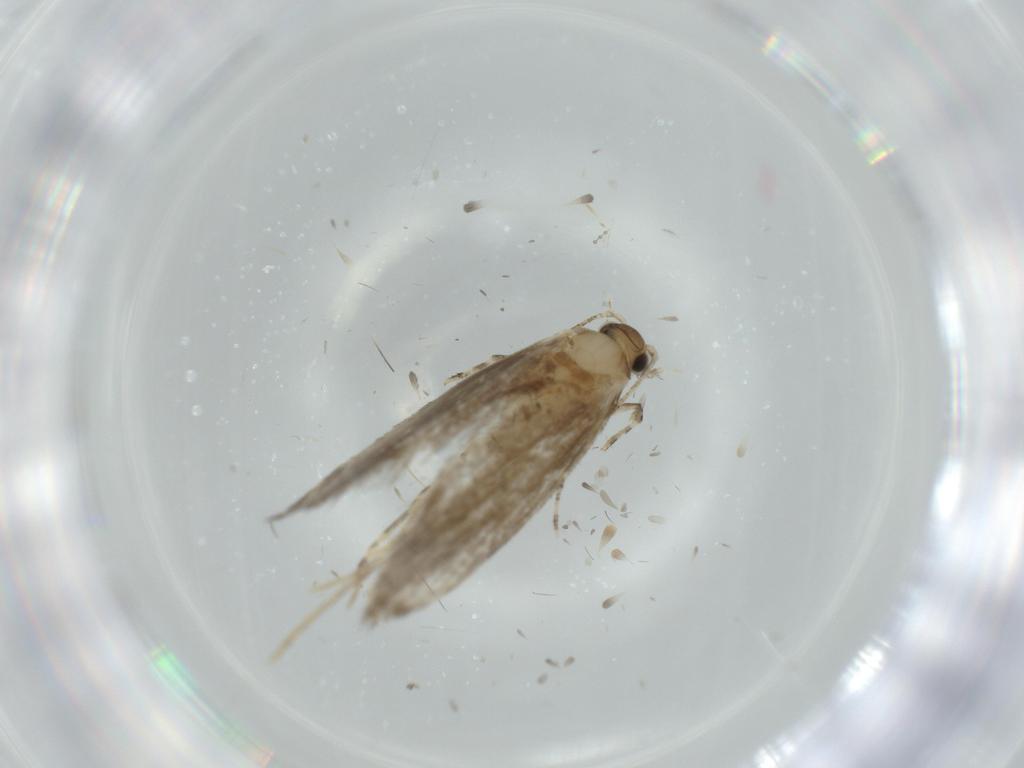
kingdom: Animalia
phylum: Arthropoda
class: Insecta
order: Lepidoptera
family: Tineidae
